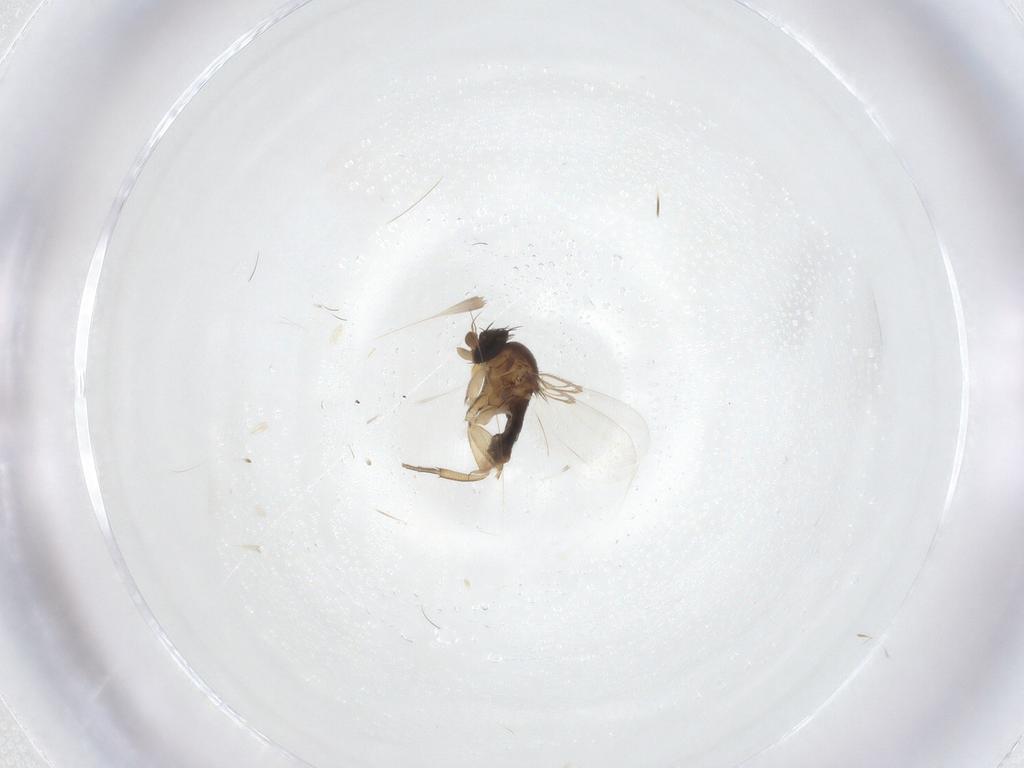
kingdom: Animalia
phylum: Arthropoda
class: Insecta
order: Diptera
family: Phoridae
